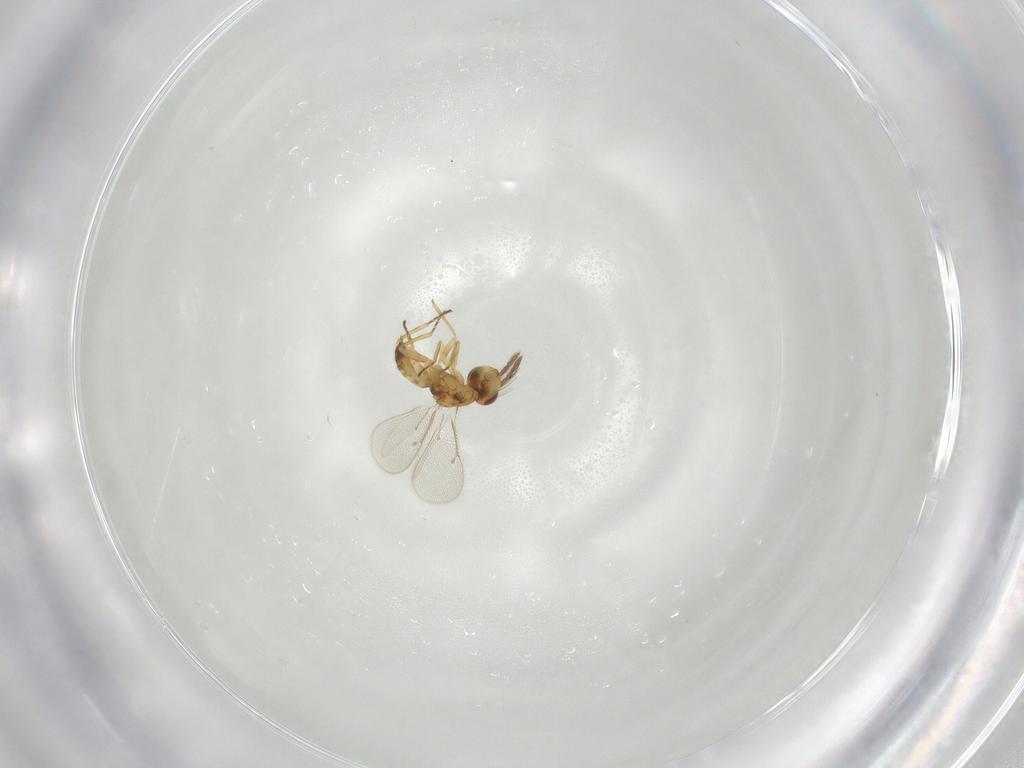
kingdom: Animalia
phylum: Arthropoda
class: Insecta
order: Hymenoptera
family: Eulophidae
